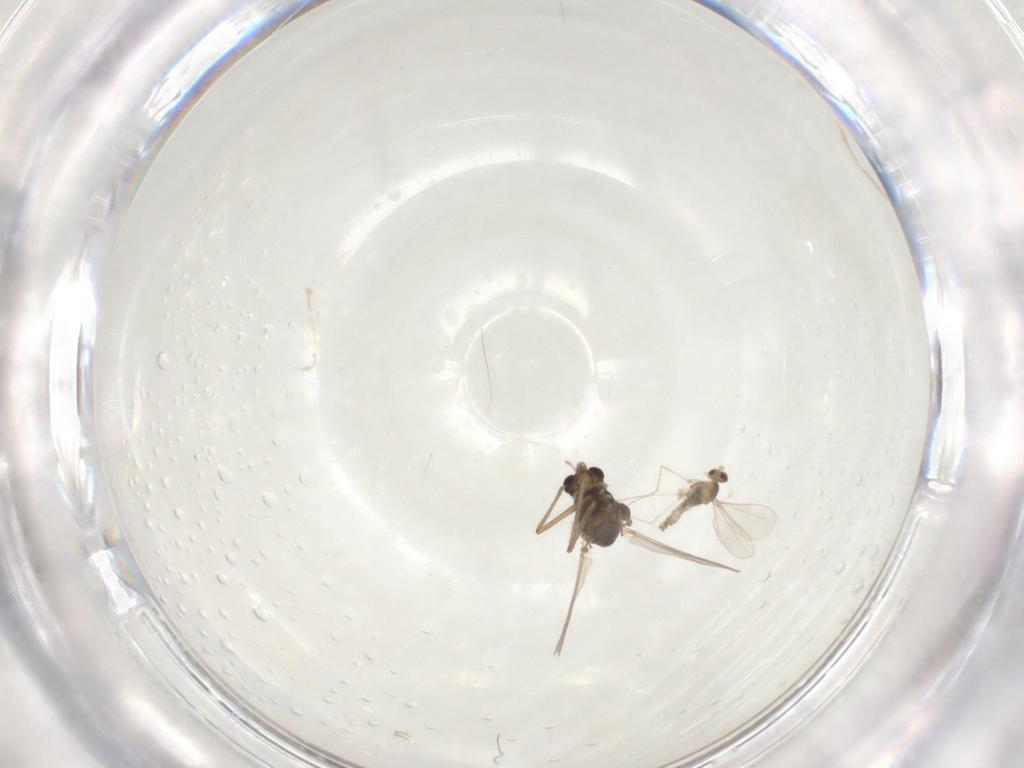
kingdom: Animalia
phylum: Arthropoda
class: Insecta
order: Diptera
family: Chironomidae
